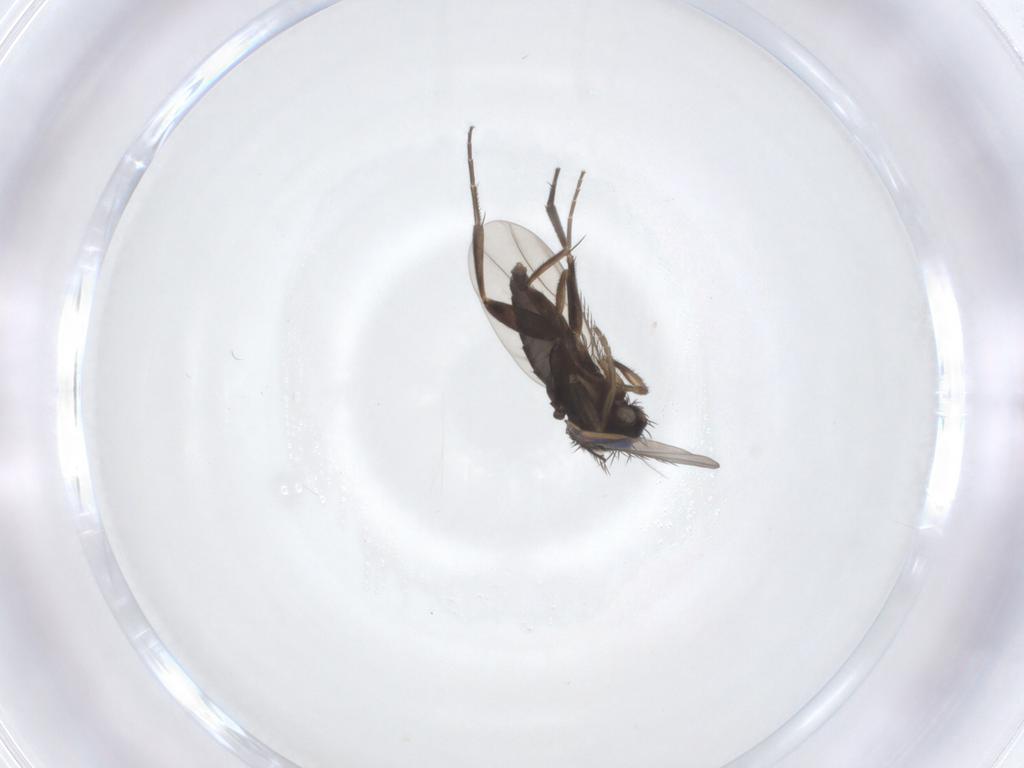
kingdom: Animalia
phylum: Arthropoda
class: Insecta
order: Diptera
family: Phoridae
